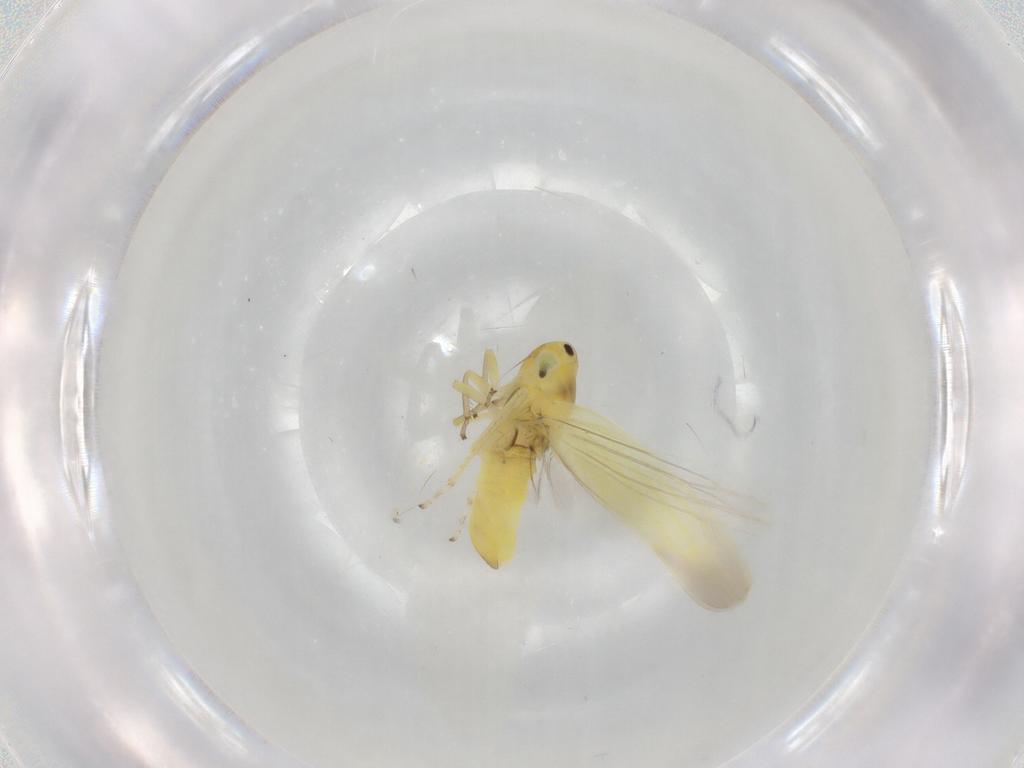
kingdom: Animalia
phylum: Arthropoda
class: Insecta
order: Hemiptera
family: Cicadellidae
